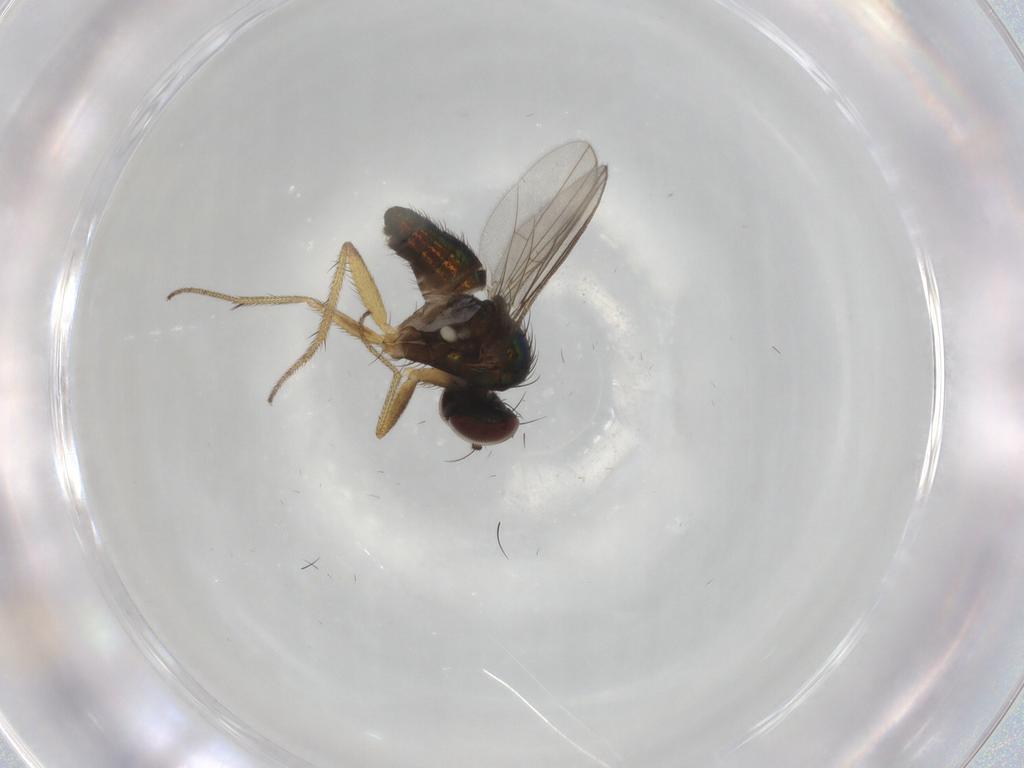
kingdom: Animalia
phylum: Arthropoda
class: Insecta
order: Diptera
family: Dolichopodidae
